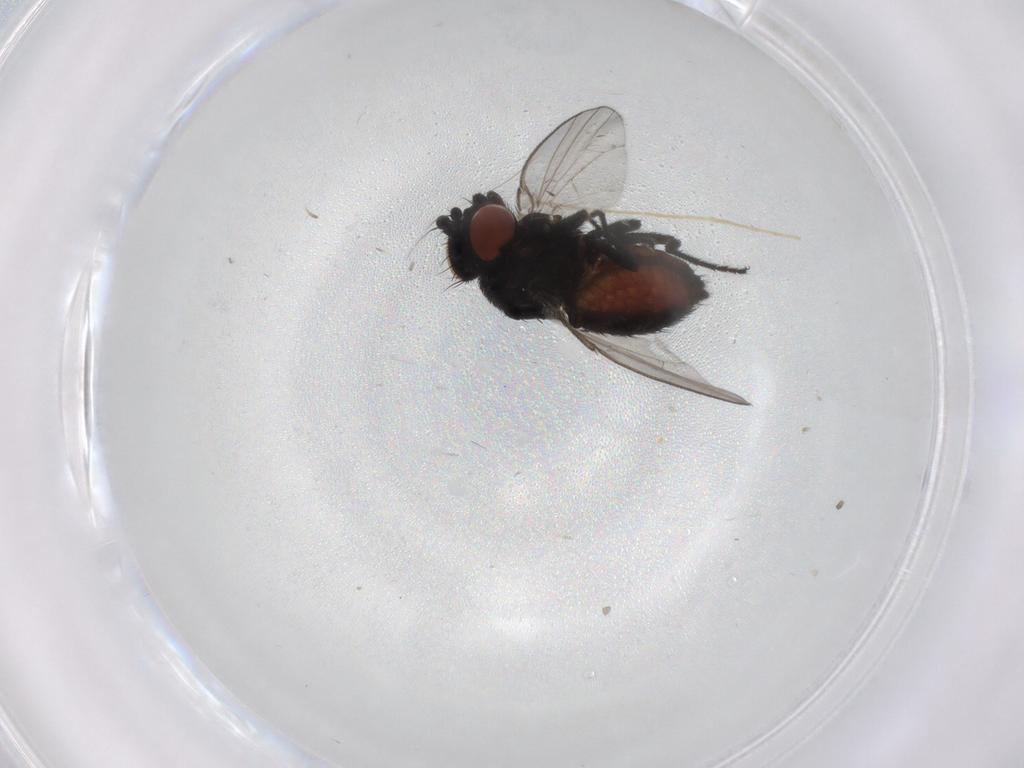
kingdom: Animalia
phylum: Arthropoda
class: Insecta
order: Diptera
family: Milichiidae
